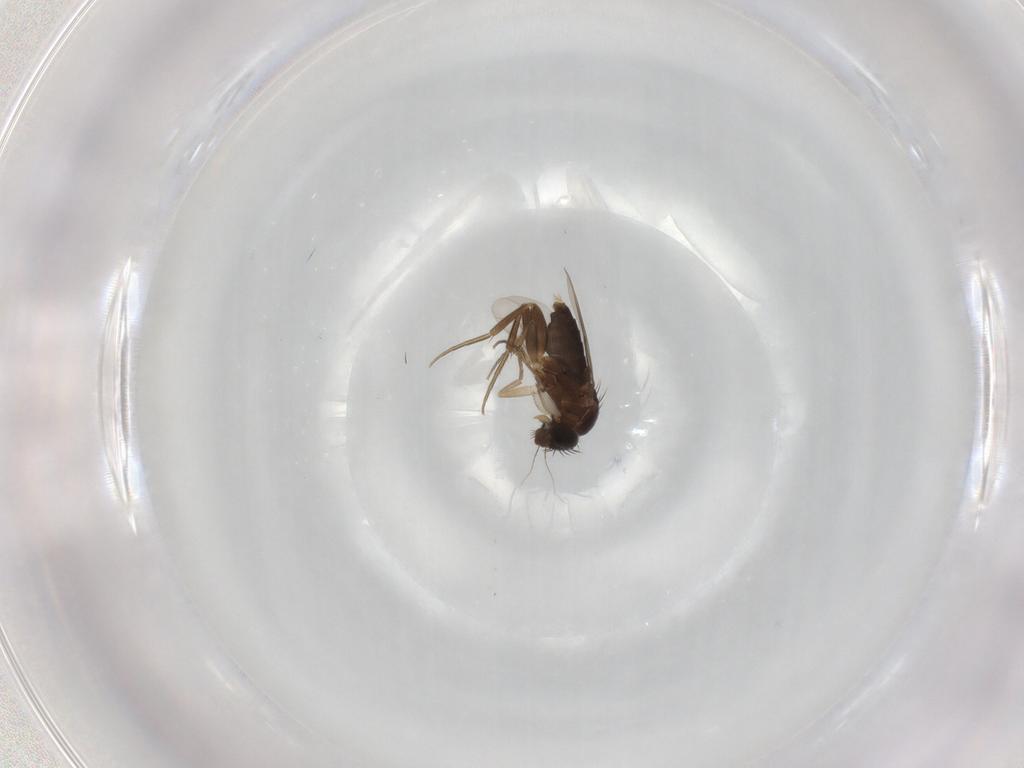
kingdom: Animalia
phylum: Arthropoda
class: Insecta
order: Diptera
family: Phoridae
